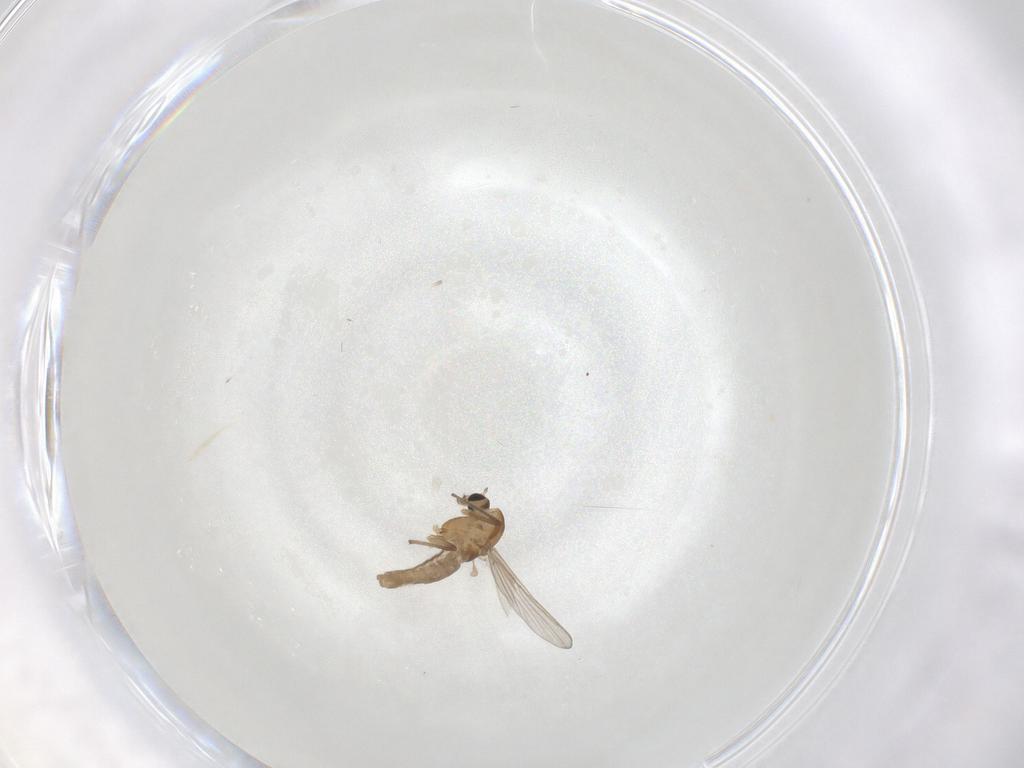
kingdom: Animalia
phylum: Arthropoda
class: Insecta
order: Diptera
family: Chironomidae
